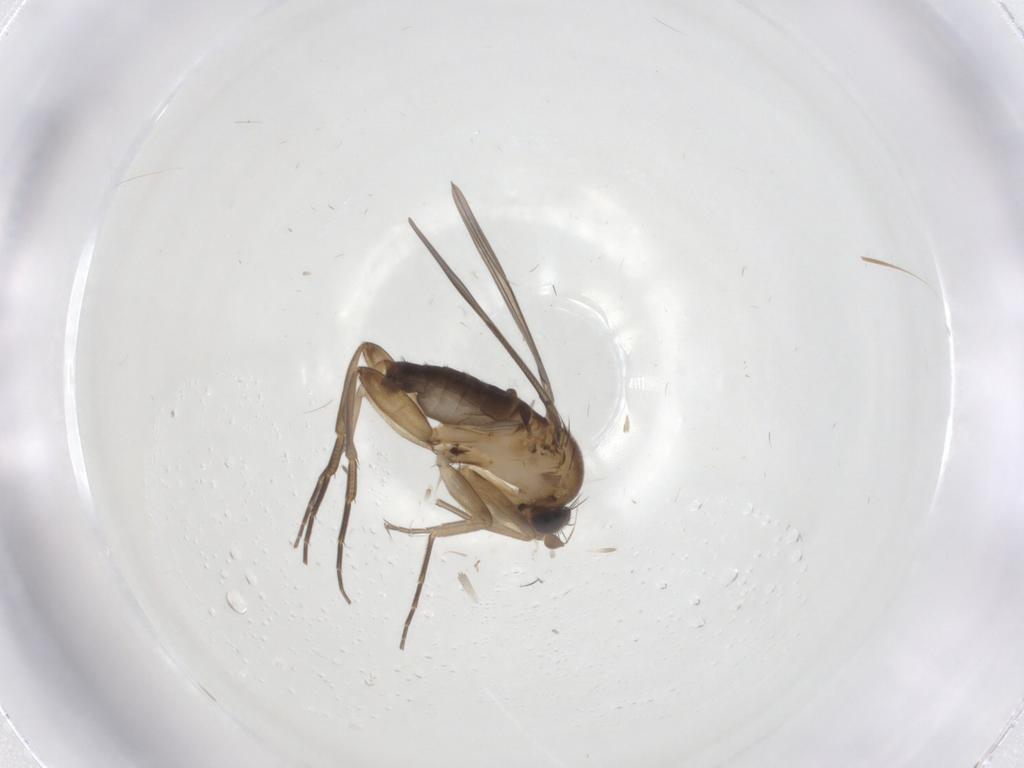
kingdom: Animalia
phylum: Arthropoda
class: Insecta
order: Diptera
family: Phoridae
